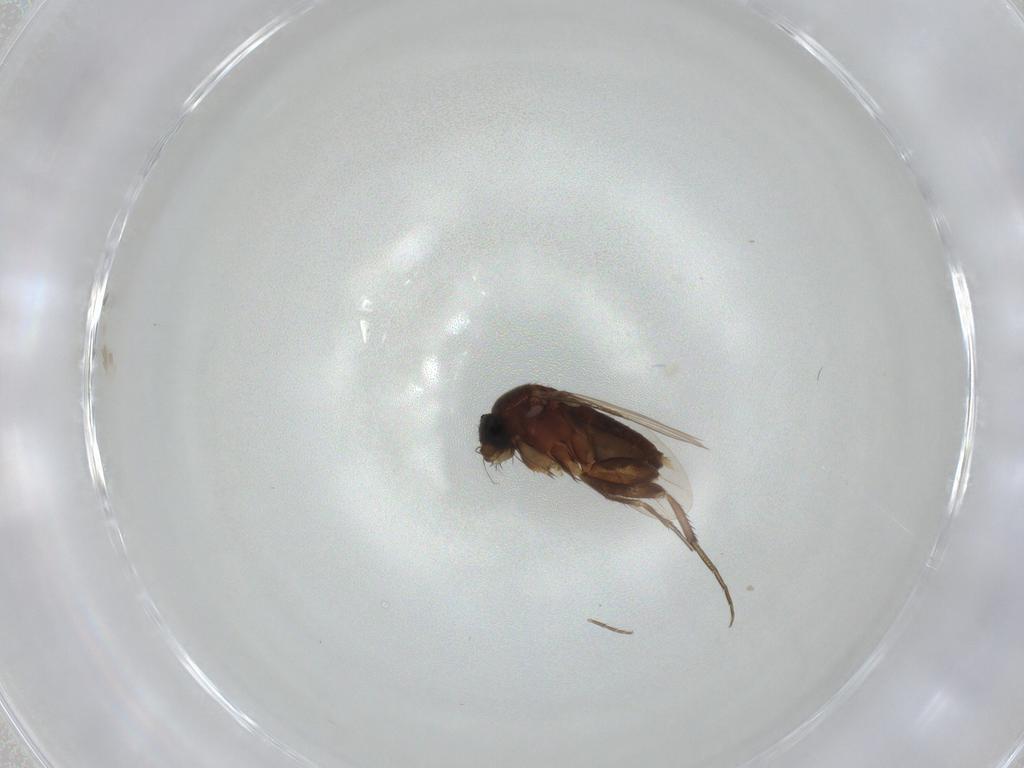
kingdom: Animalia
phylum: Arthropoda
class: Insecta
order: Diptera
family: Phoridae
